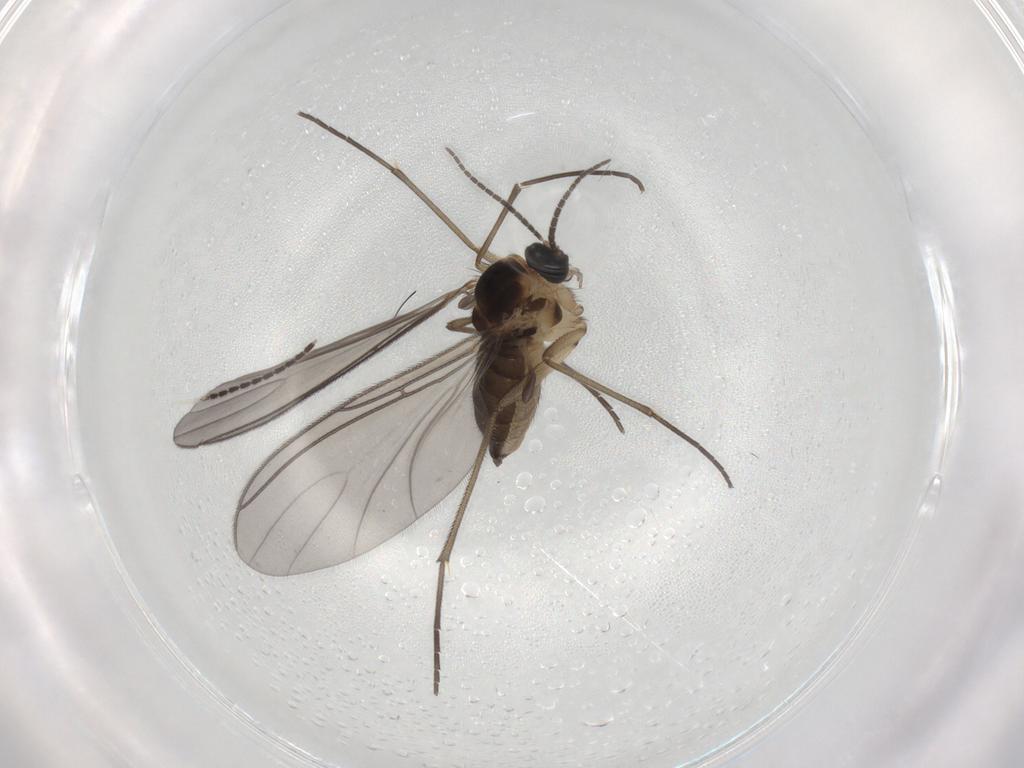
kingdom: Animalia
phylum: Arthropoda
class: Insecta
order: Diptera
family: Sciaridae
